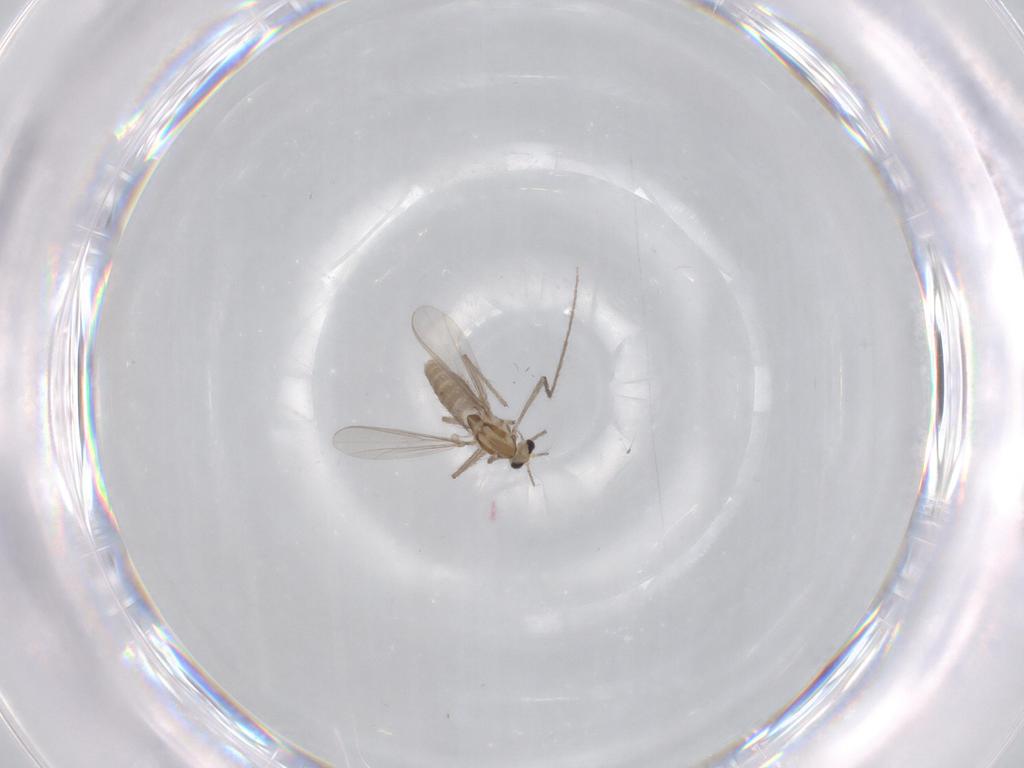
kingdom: Animalia
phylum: Arthropoda
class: Insecta
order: Diptera
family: Chironomidae
